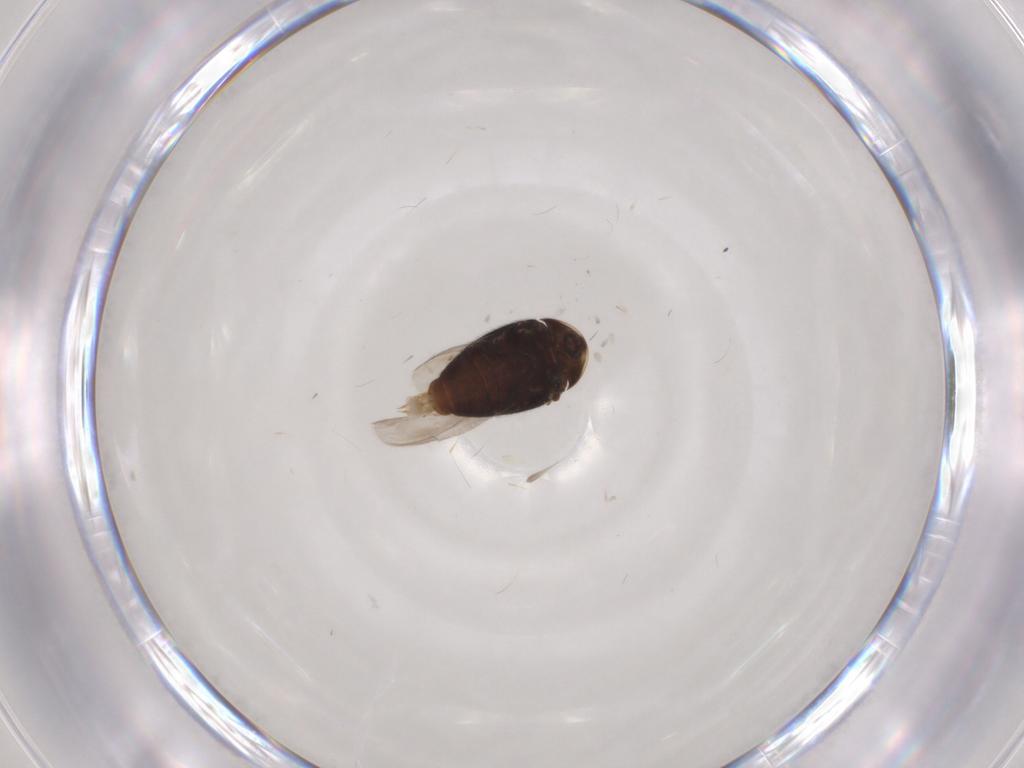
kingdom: Animalia
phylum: Arthropoda
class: Insecta
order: Coleoptera
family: Corylophidae
